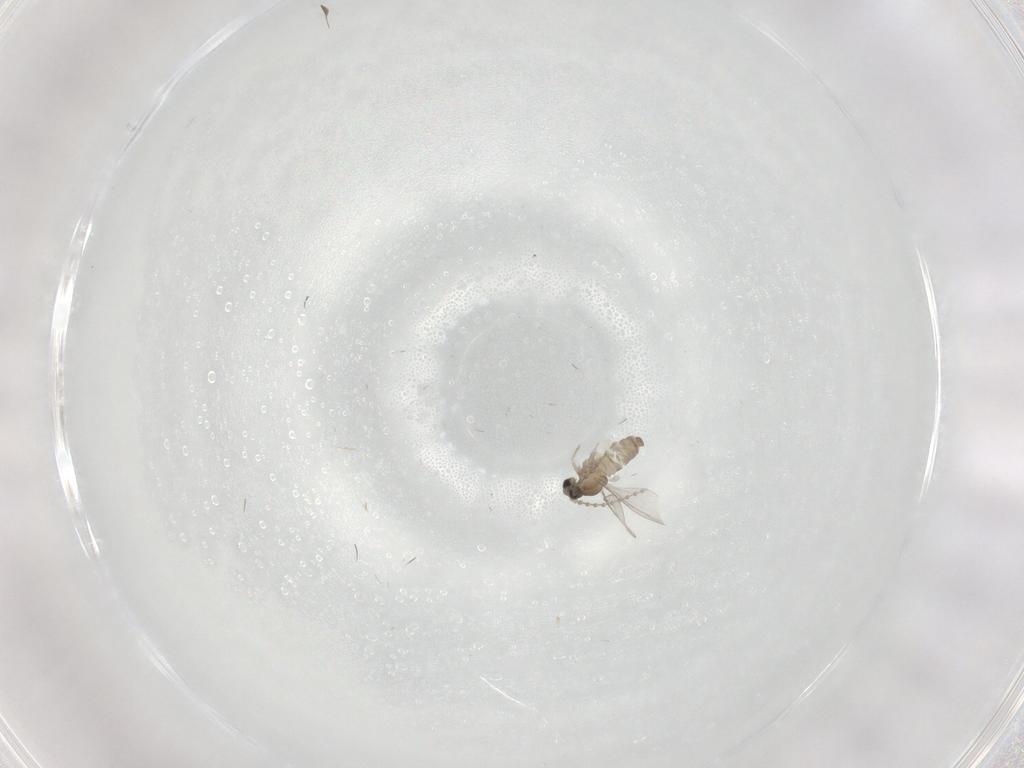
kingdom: Animalia
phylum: Arthropoda
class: Insecta
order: Diptera
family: Cecidomyiidae
